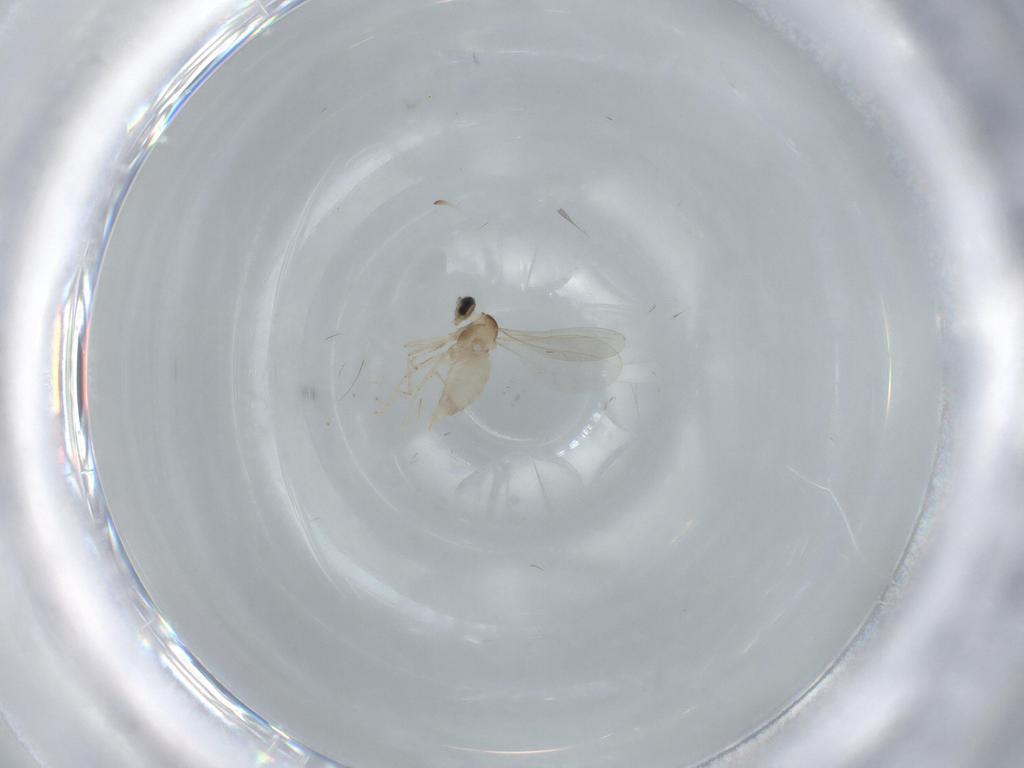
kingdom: Animalia
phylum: Arthropoda
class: Insecta
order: Diptera
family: Cecidomyiidae
